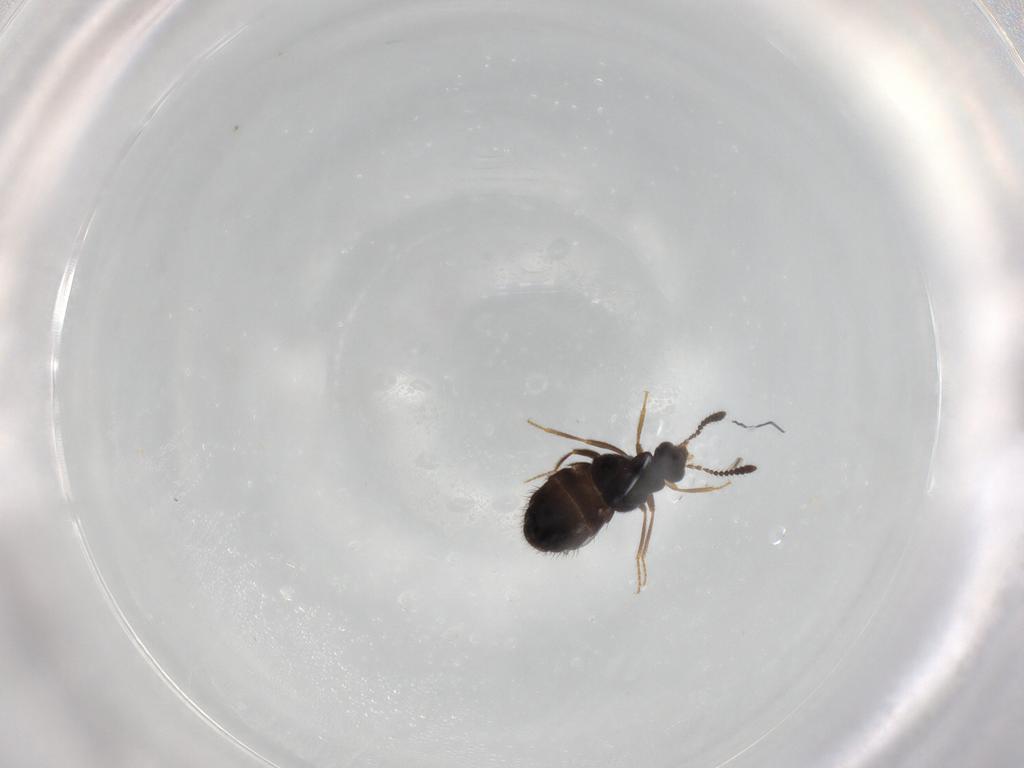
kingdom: Animalia
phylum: Arthropoda
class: Insecta
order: Coleoptera
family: Staphylinidae
